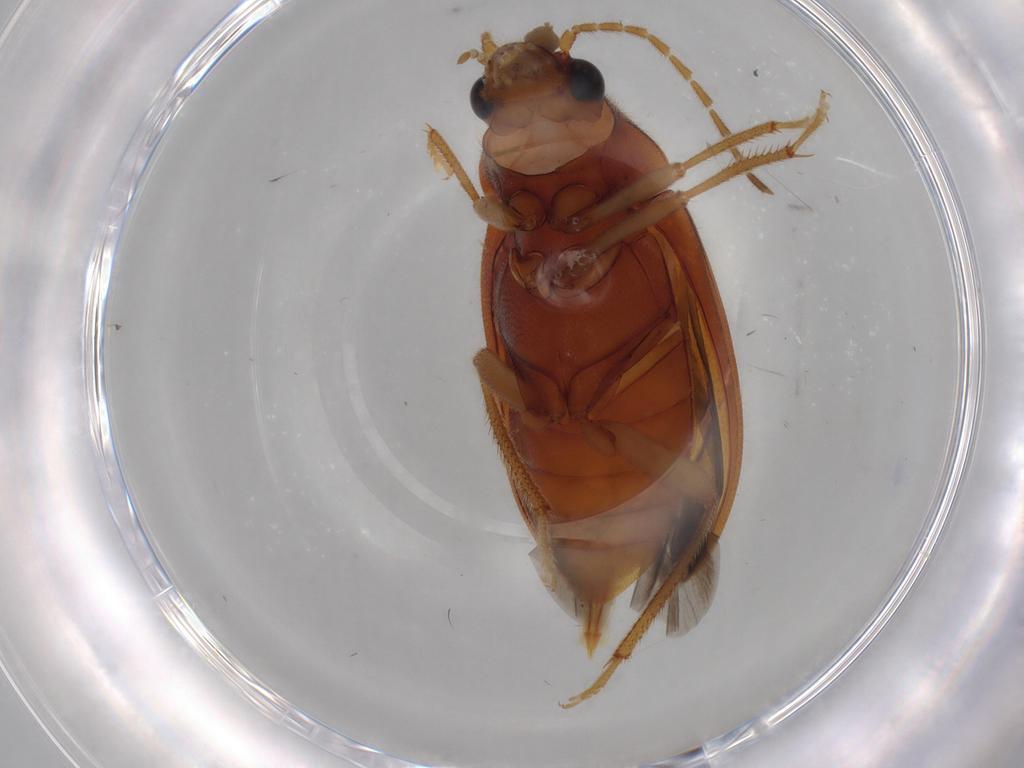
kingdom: Animalia
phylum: Arthropoda
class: Insecta
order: Coleoptera
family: Ptilodactylidae
